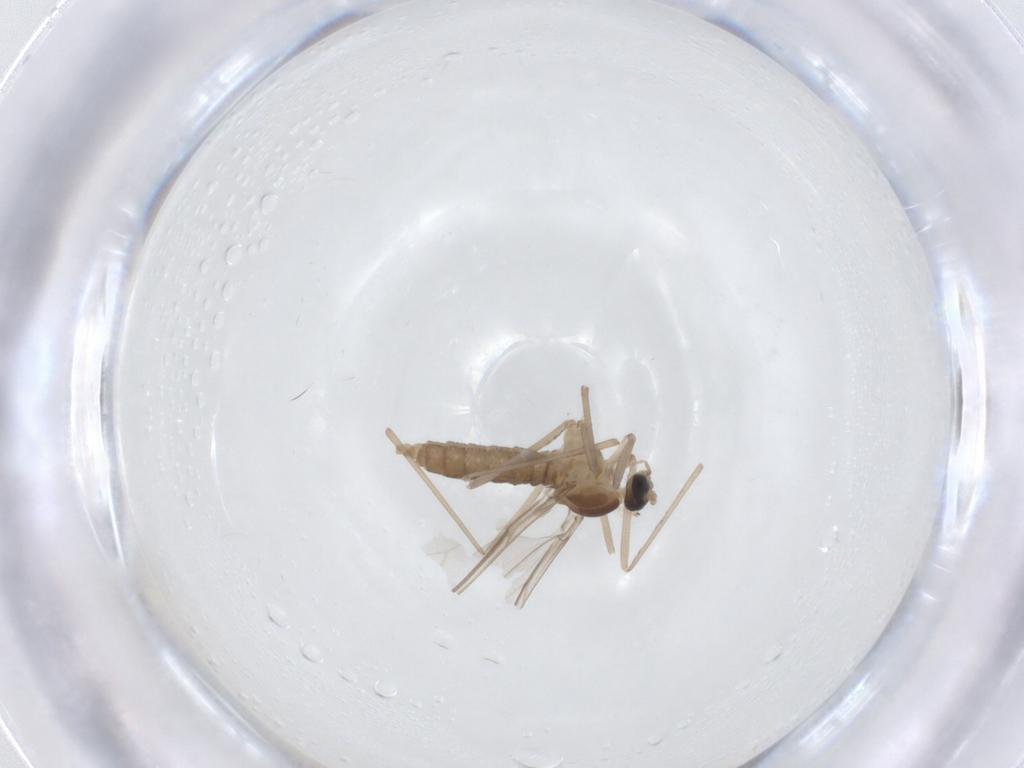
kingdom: Animalia
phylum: Arthropoda
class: Insecta
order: Diptera
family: Cecidomyiidae
